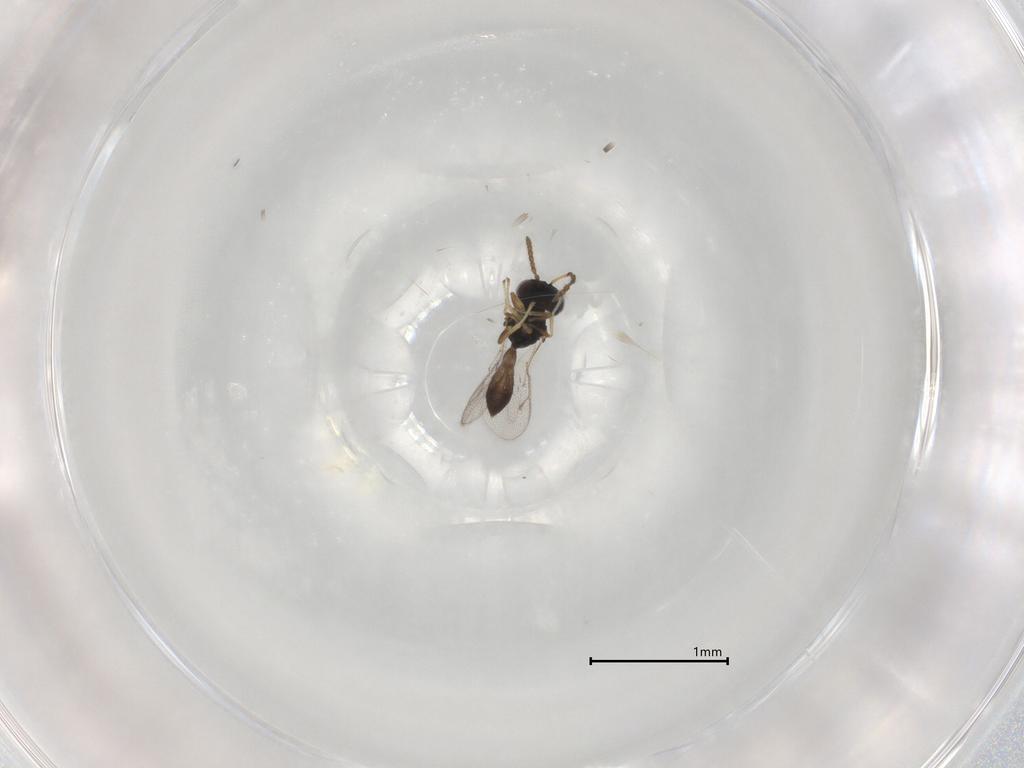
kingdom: Animalia
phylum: Arthropoda
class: Insecta
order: Hymenoptera
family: Pteromalidae
